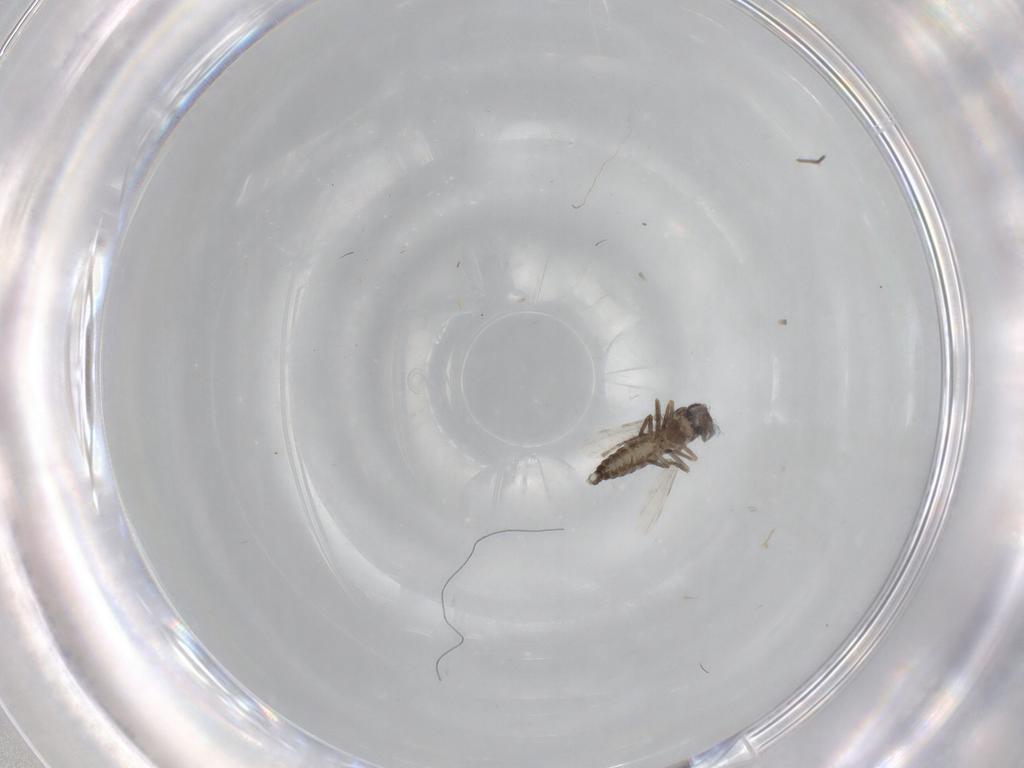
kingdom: Animalia
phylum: Arthropoda
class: Insecta
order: Diptera
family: Ceratopogonidae
